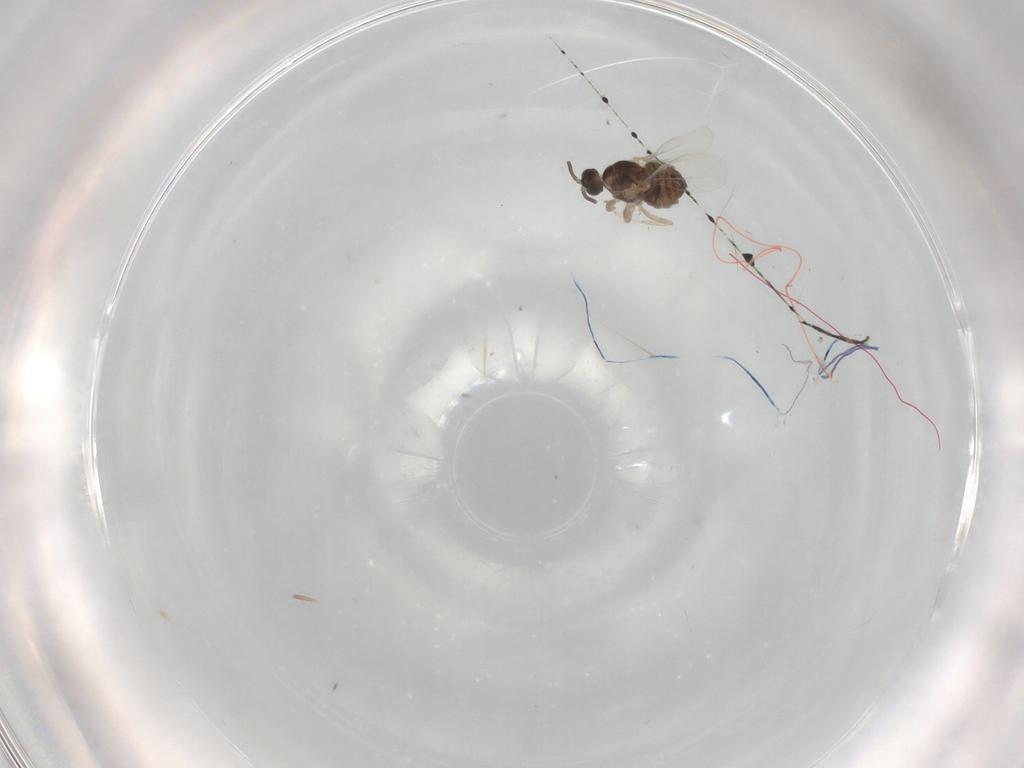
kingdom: Animalia
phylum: Arthropoda
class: Insecta
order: Diptera
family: Cecidomyiidae
